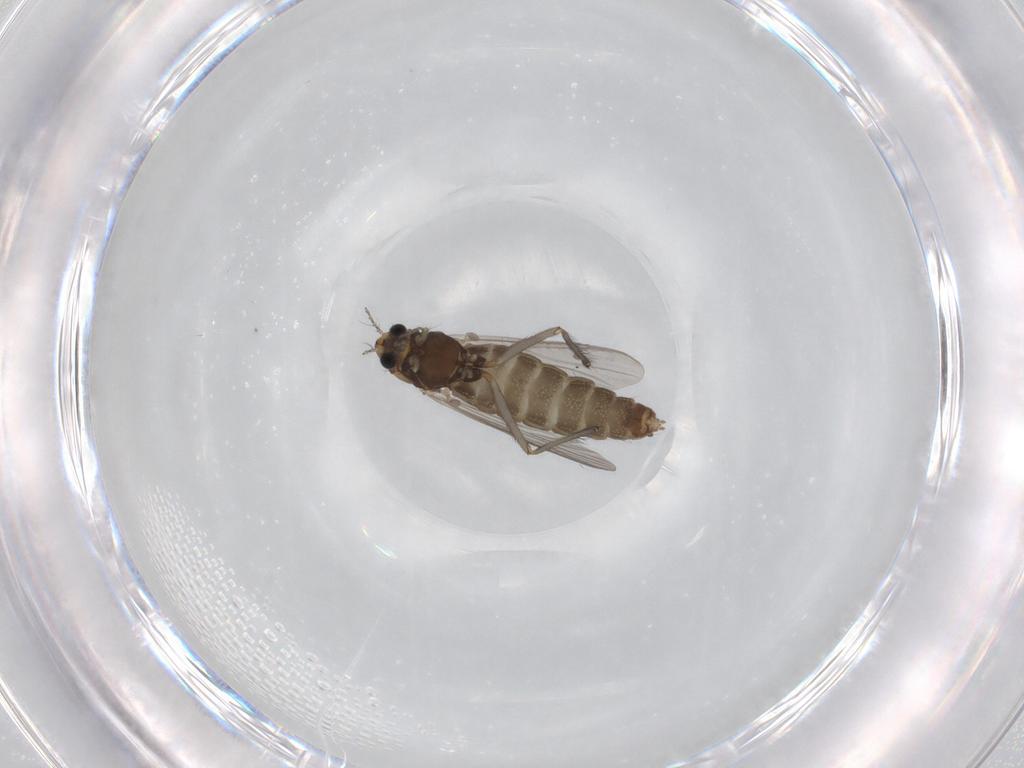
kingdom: Animalia
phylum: Arthropoda
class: Insecta
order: Diptera
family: Chironomidae
